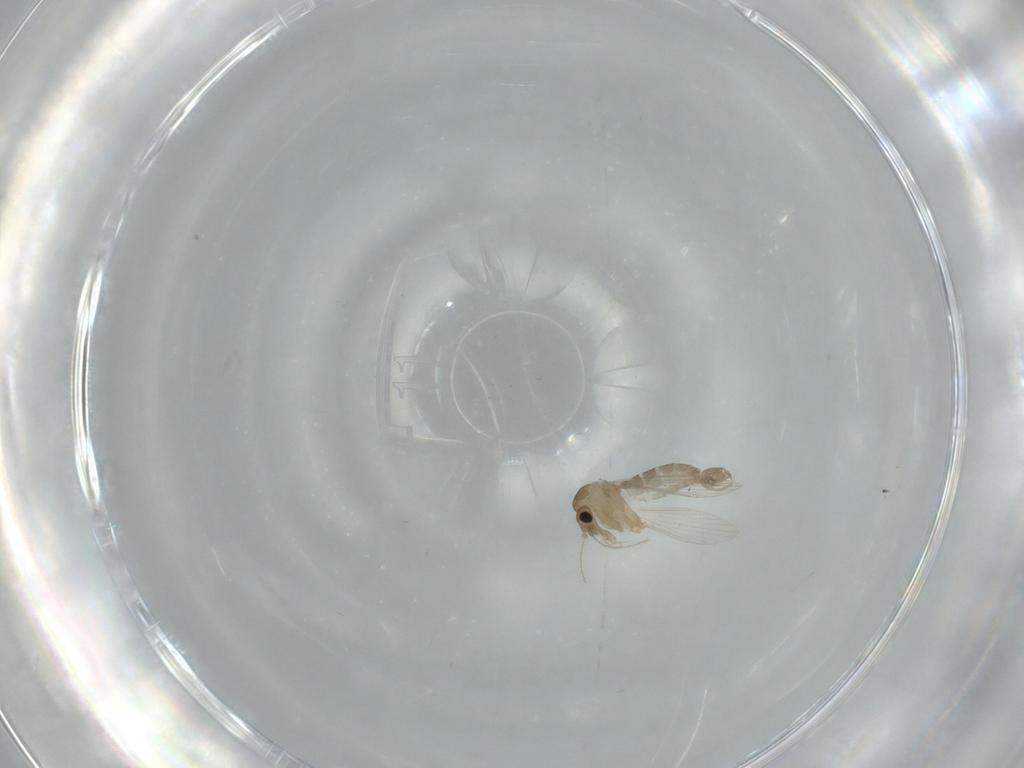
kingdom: Animalia
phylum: Arthropoda
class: Insecta
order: Diptera
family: Psychodidae
